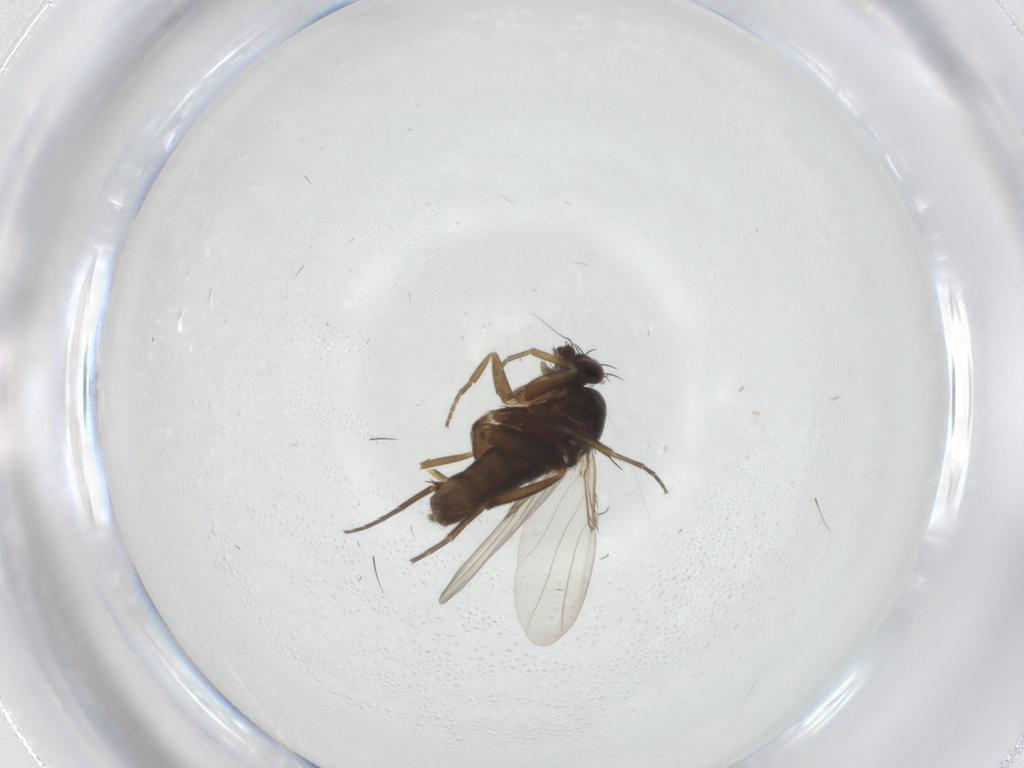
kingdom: Animalia
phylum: Arthropoda
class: Insecta
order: Diptera
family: Phoridae
